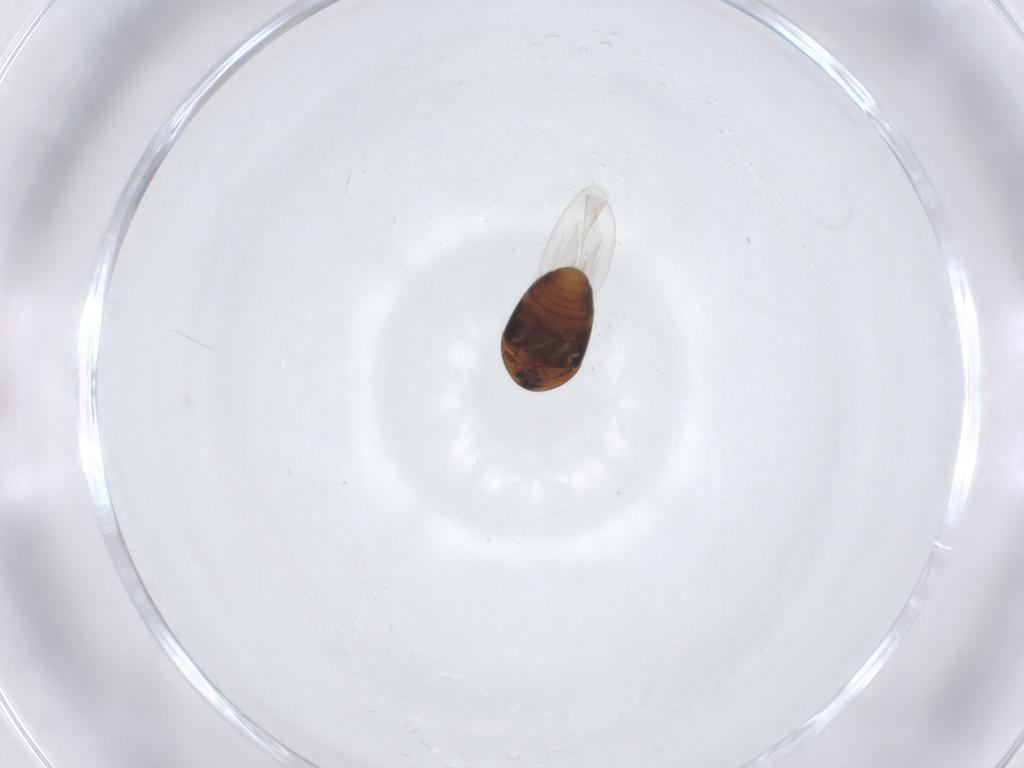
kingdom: Animalia
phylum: Arthropoda
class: Insecta
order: Coleoptera
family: Corylophidae
